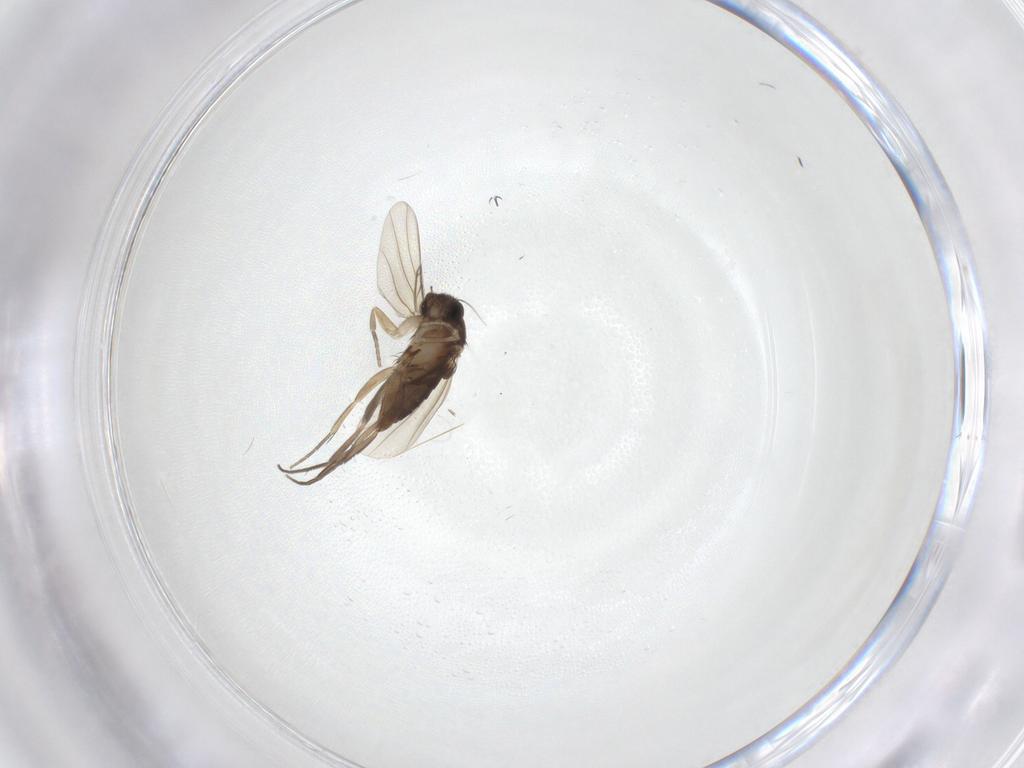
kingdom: Animalia
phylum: Arthropoda
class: Insecta
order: Diptera
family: Phoridae
